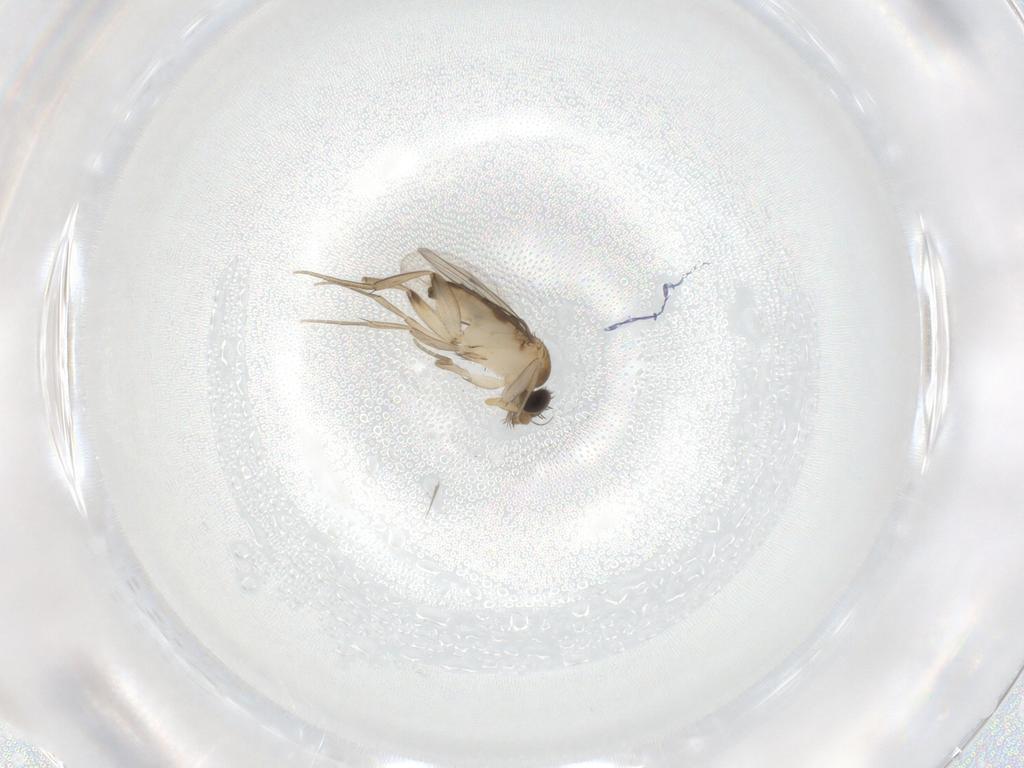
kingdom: Animalia
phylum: Arthropoda
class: Insecta
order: Diptera
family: Phoridae
